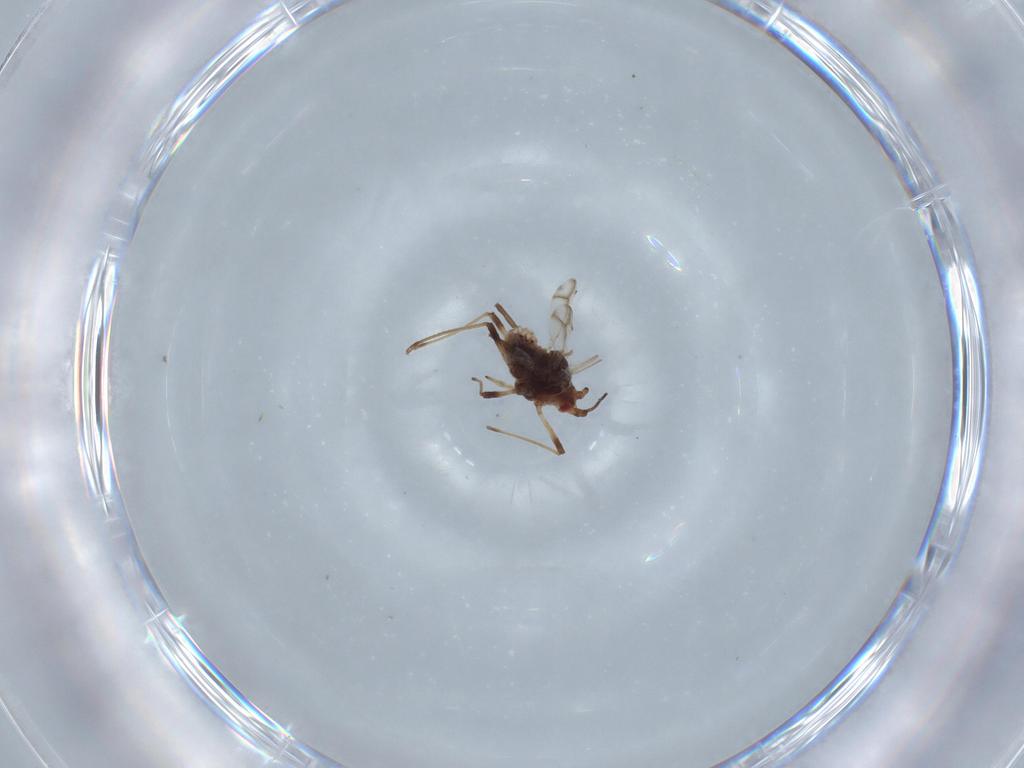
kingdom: Animalia
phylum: Arthropoda
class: Insecta
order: Hemiptera
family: Aphididae
